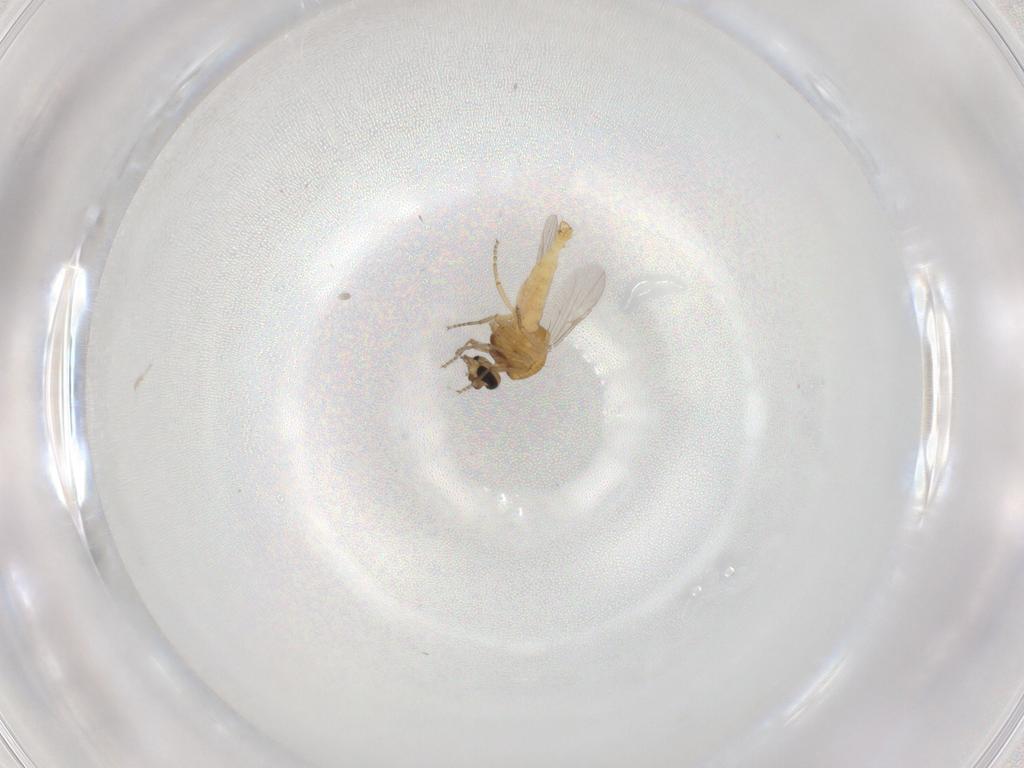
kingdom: Animalia
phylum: Arthropoda
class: Insecta
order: Diptera
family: Ceratopogonidae
